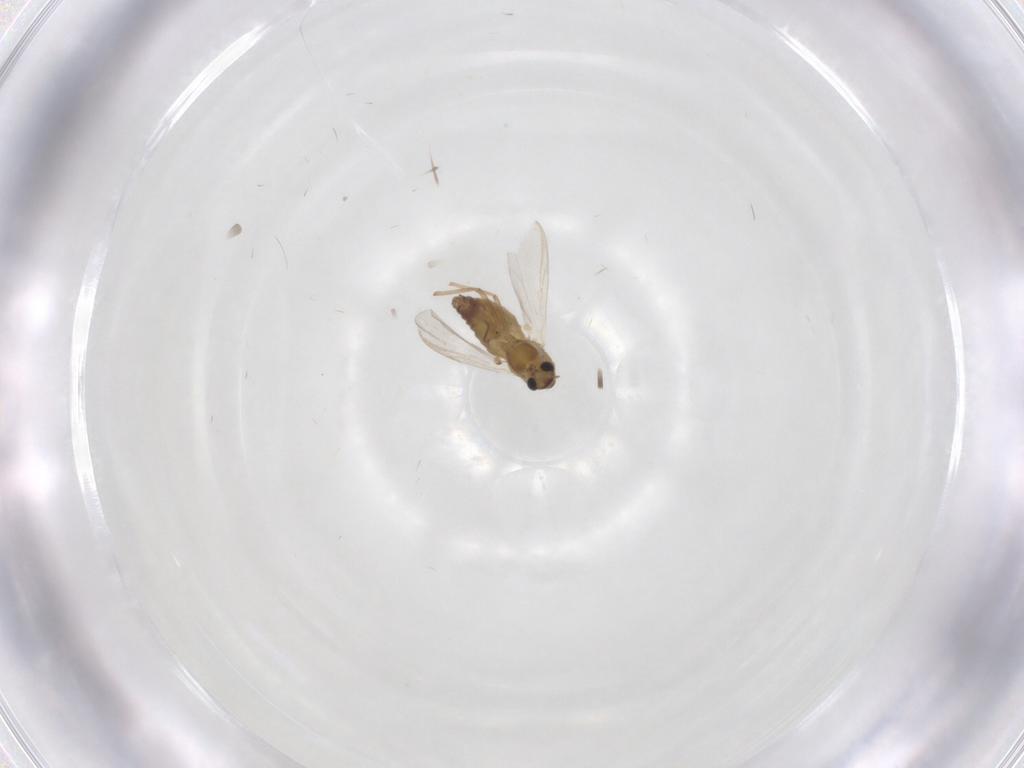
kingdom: Animalia
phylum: Arthropoda
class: Insecta
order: Diptera
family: Chironomidae
